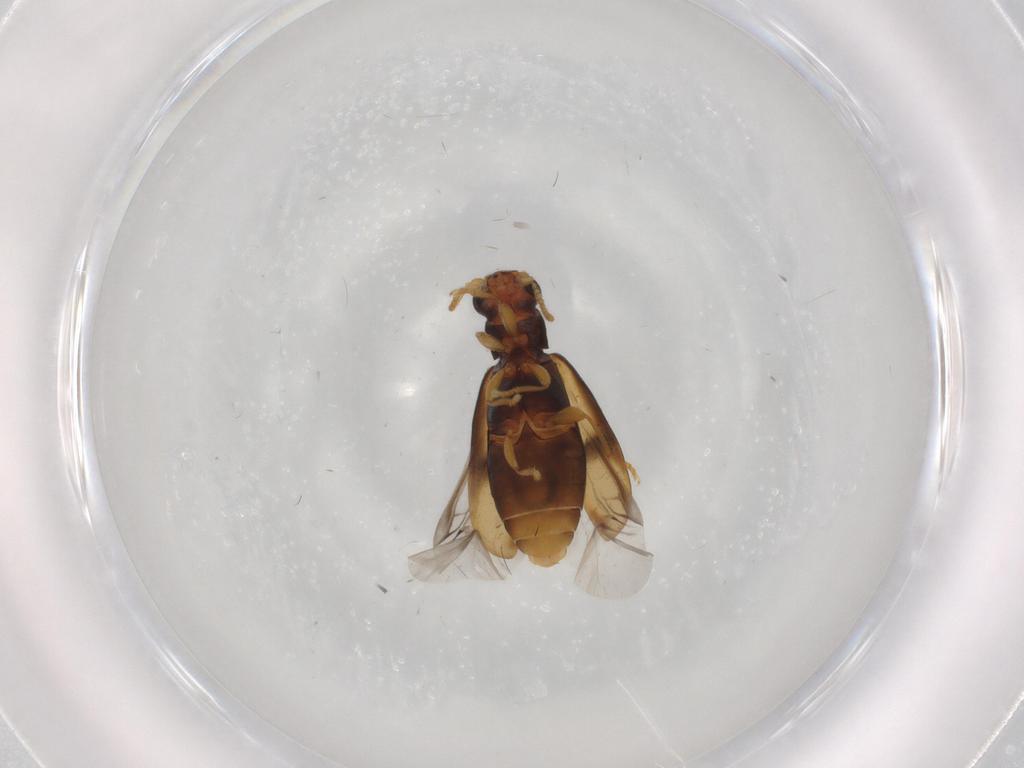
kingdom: Animalia
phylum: Arthropoda
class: Insecta
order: Coleoptera
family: Mycteridae
